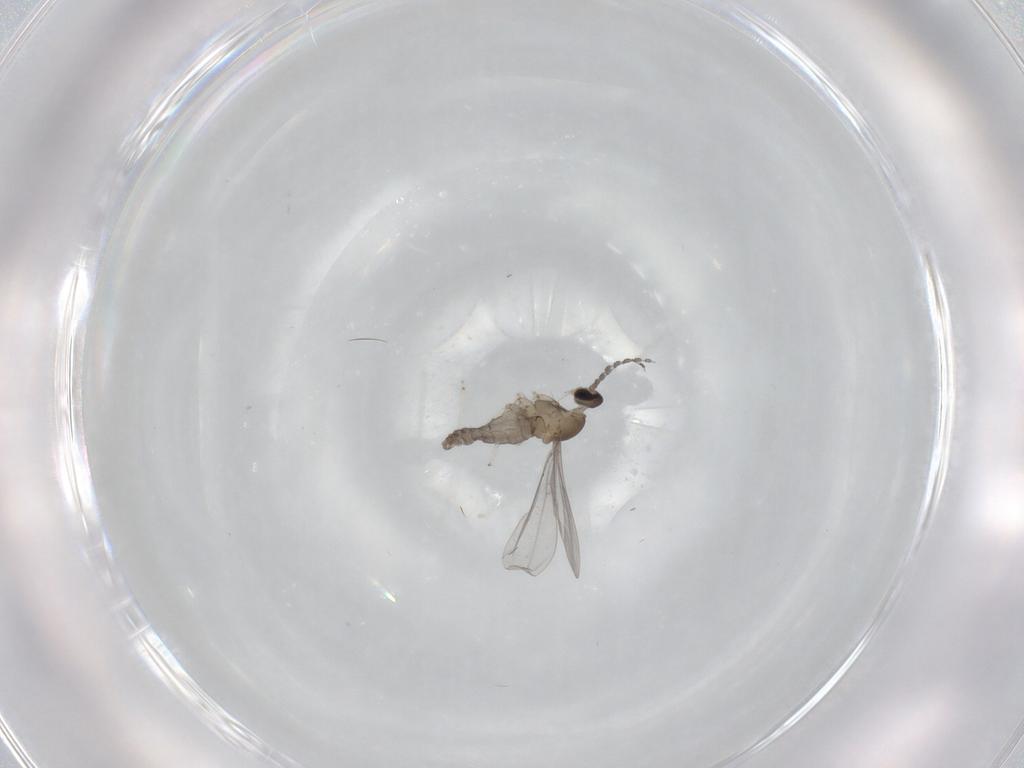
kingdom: Animalia
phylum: Arthropoda
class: Insecta
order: Diptera
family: Cecidomyiidae
